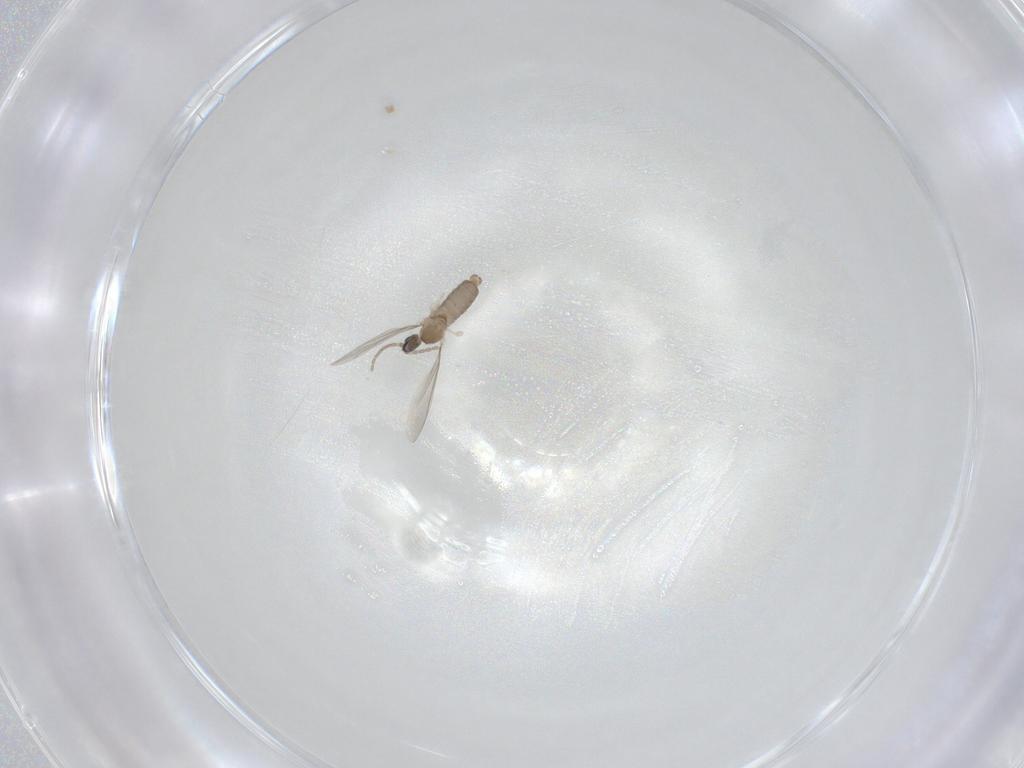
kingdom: Animalia
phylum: Arthropoda
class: Insecta
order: Diptera
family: Cecidomyiidae
